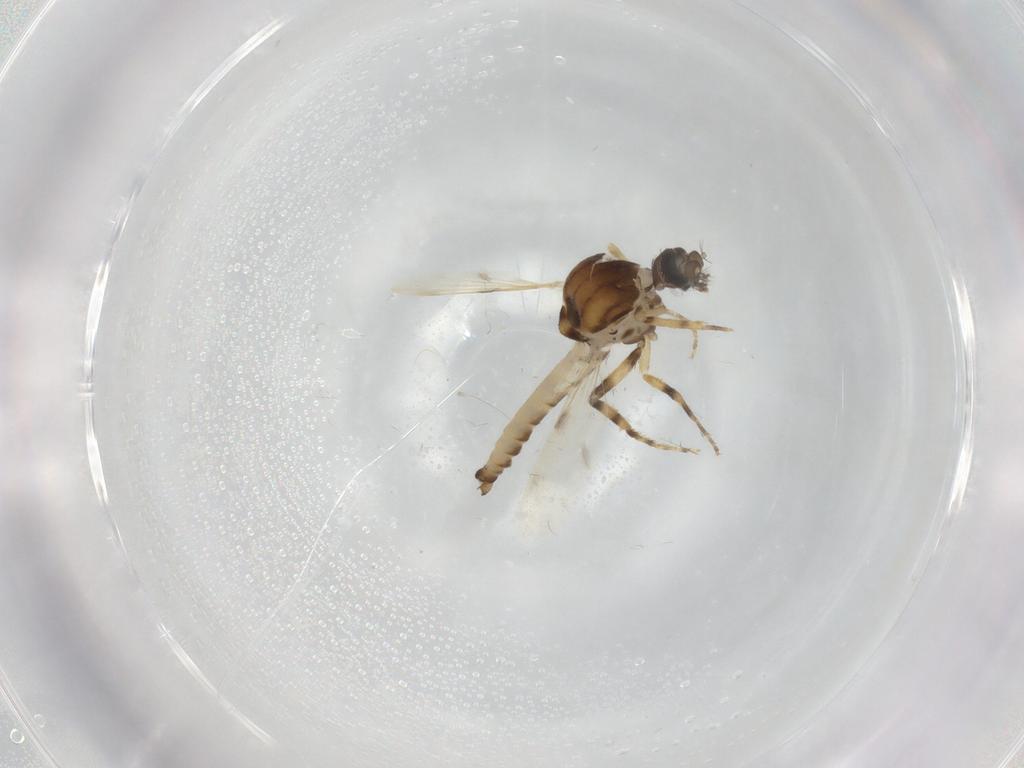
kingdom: Animalia
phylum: Arthropoda
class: Insecta
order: Diptera
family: Ceratopogonidae
